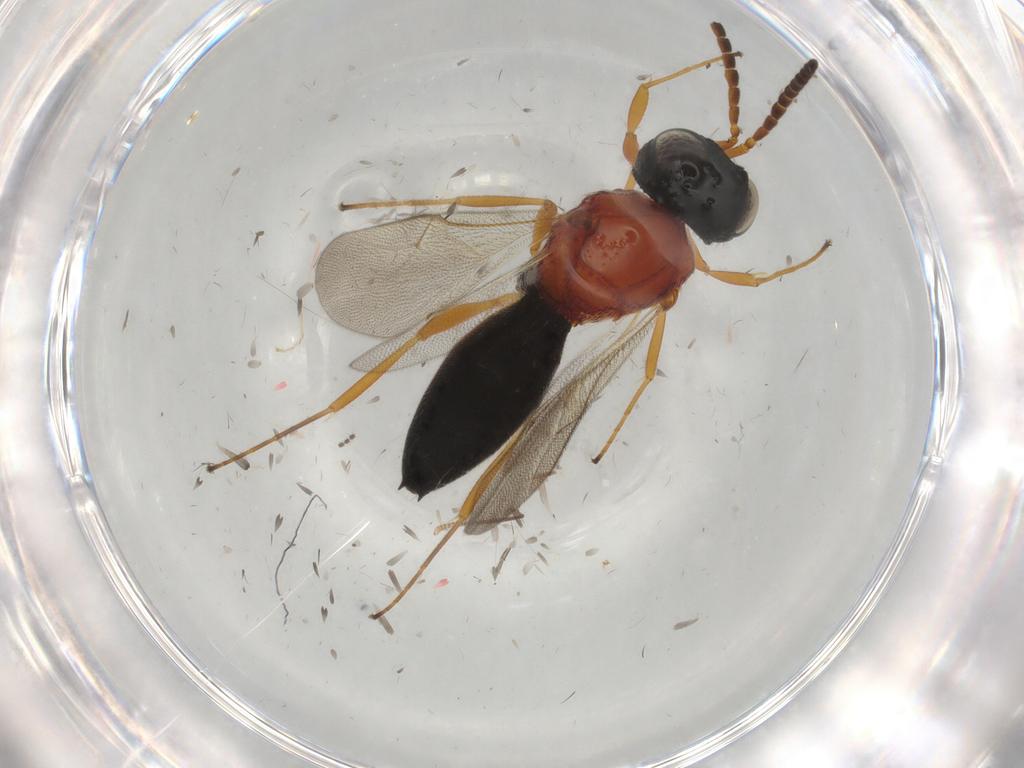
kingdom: Animalia
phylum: Arthropoda
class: Insecta
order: Hymenoptera
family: Scelionidae
